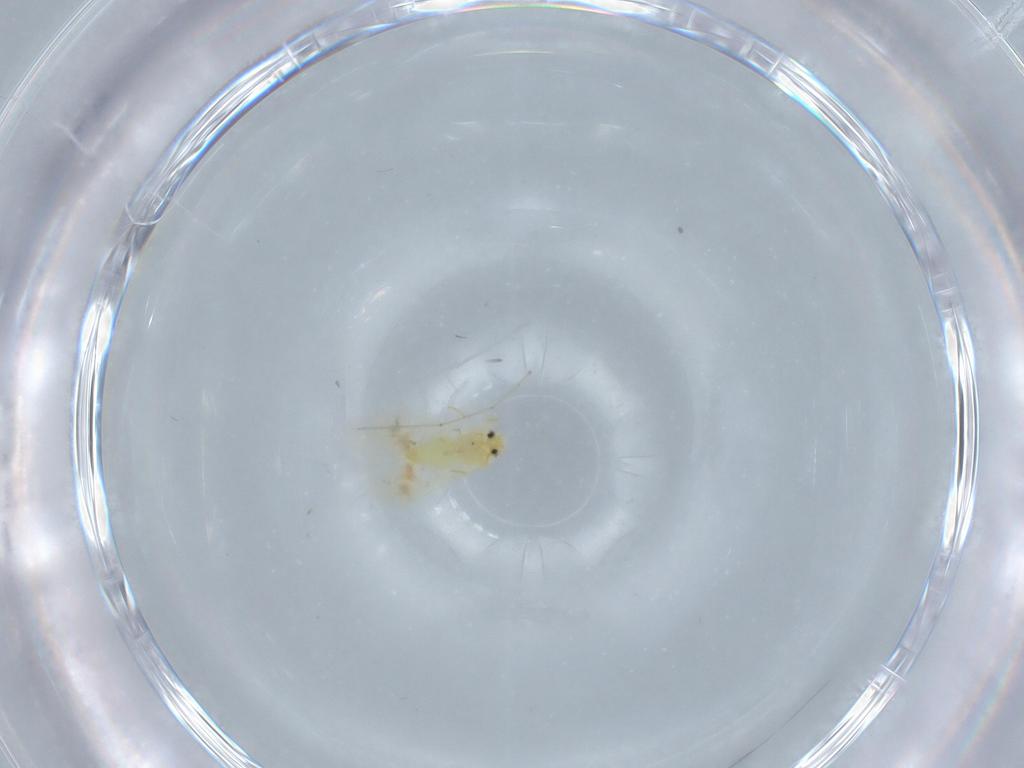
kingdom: Animalia
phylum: Arthropoda
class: Insecta
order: Hemiptera
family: Aleyrodidae
